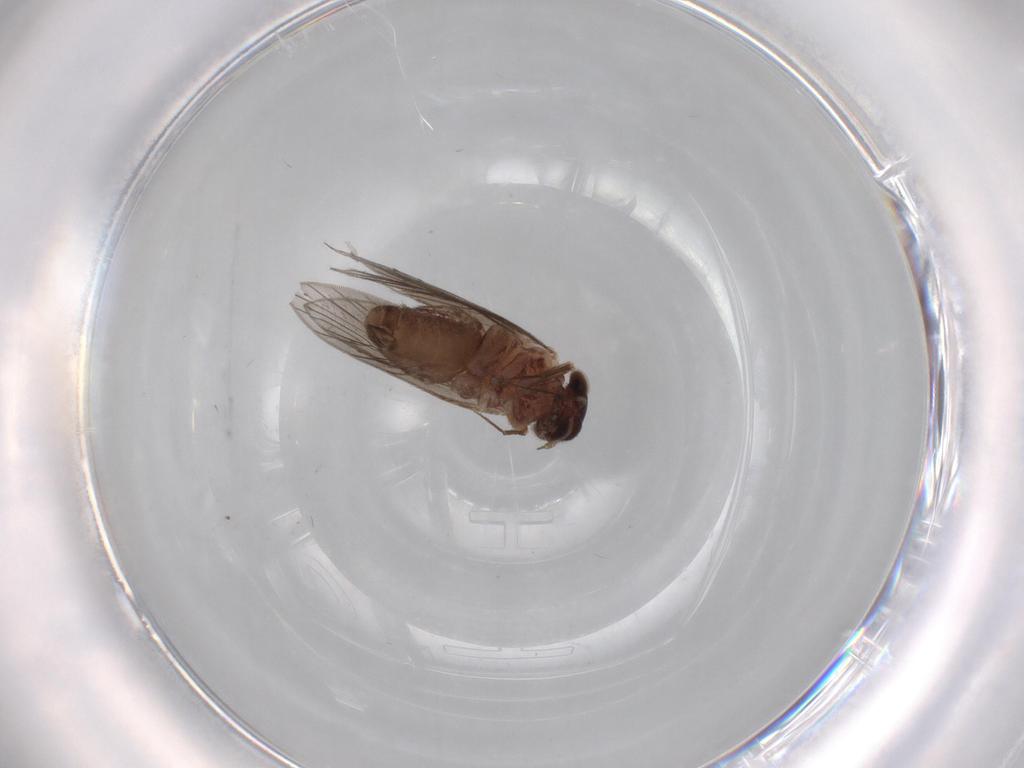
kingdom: Animalia
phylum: Arthropoda
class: Insecta
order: Psocodea
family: Lepidopsocidae
